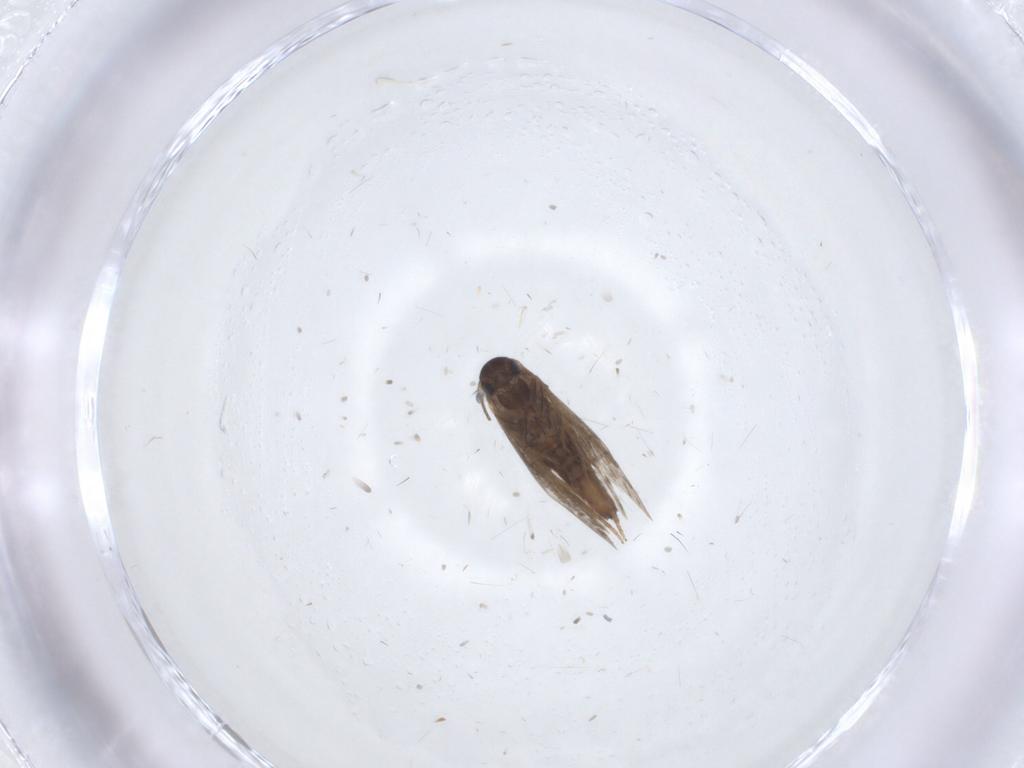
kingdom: Animalia
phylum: Arthropoda
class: Insecta
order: Lepidoptera
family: Heliozelidae
